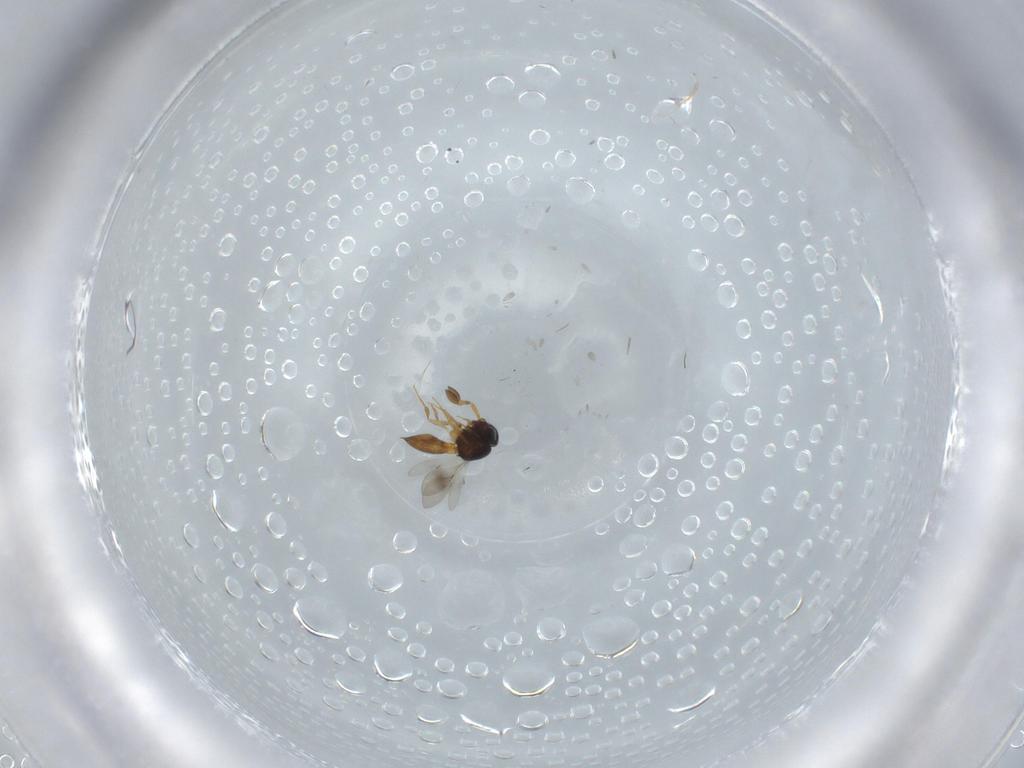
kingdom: Animalia
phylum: Arthropoda
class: Insecta
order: Hymenoptera
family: Scelionidae
